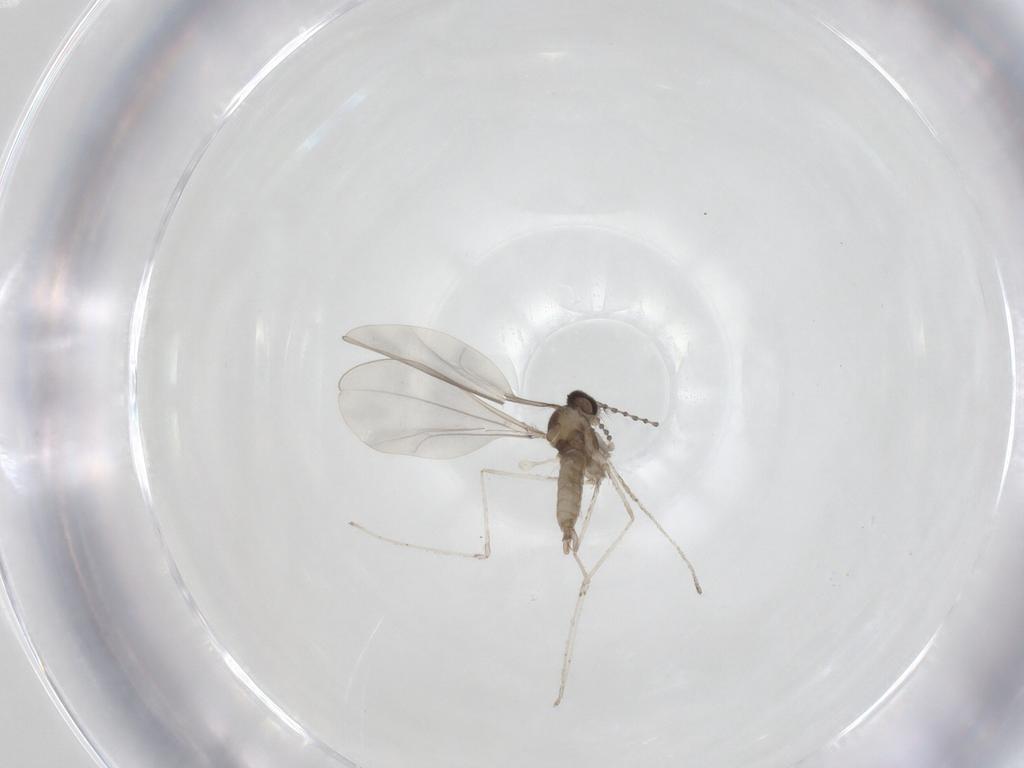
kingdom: Animalia
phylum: Arthropoda
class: Insecta
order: Diptera
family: Cecidomyiidae
